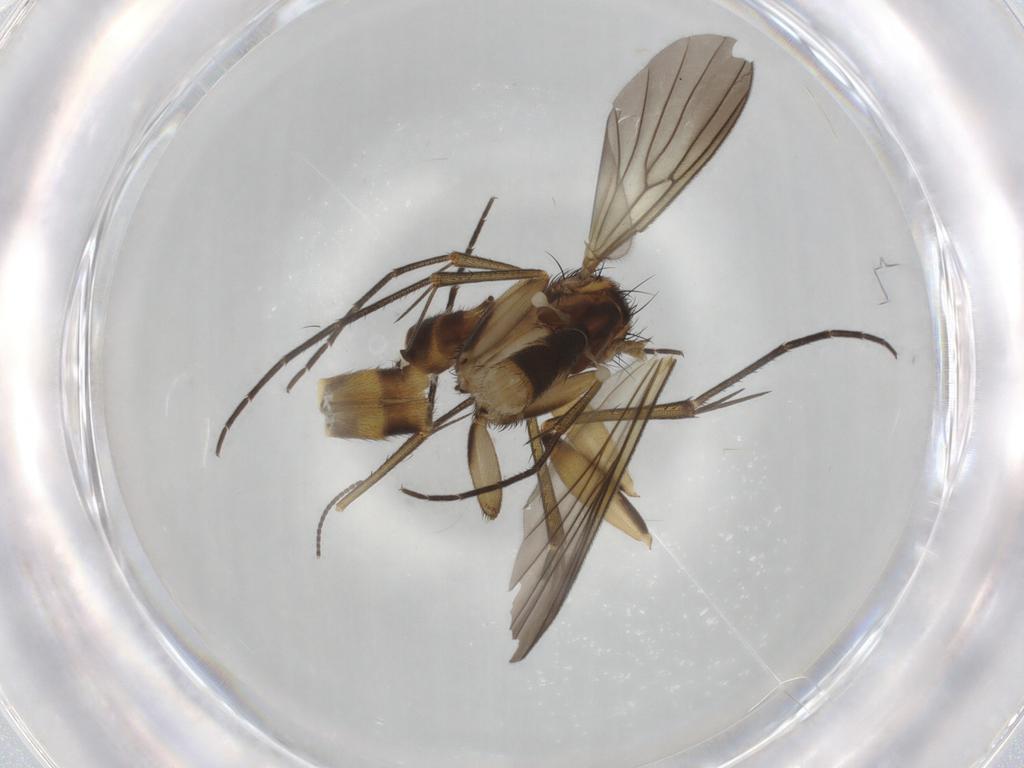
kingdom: Animalia
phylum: Arthropoda
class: Insecta
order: Diptera
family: Mycetophilidae
